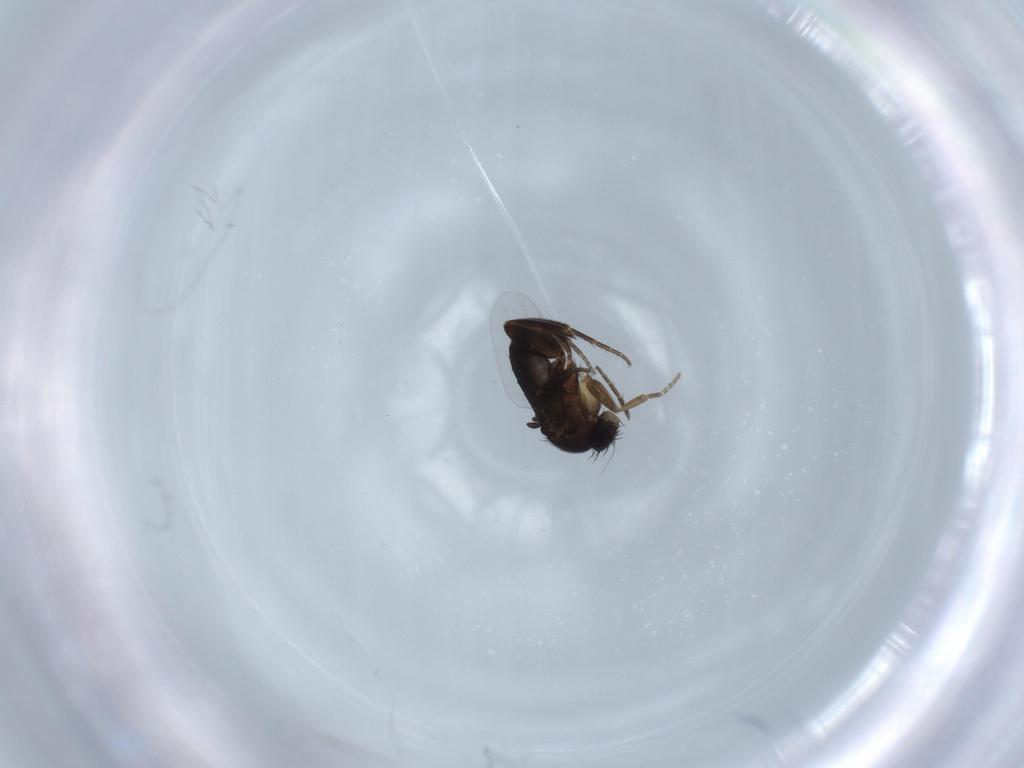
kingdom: Animalia
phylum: Arthropoda
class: Insecta
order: Diptera
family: Phoridae
